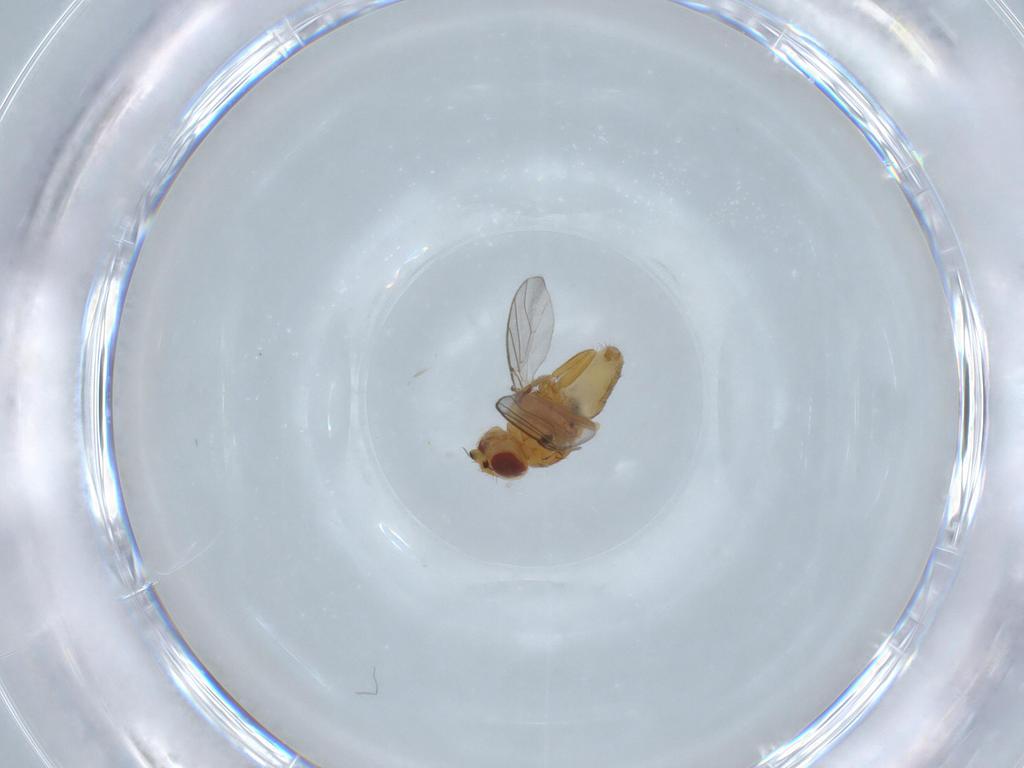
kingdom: Animalia
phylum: Arthropoda
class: Insecta
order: Diptera
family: Chloropidae
